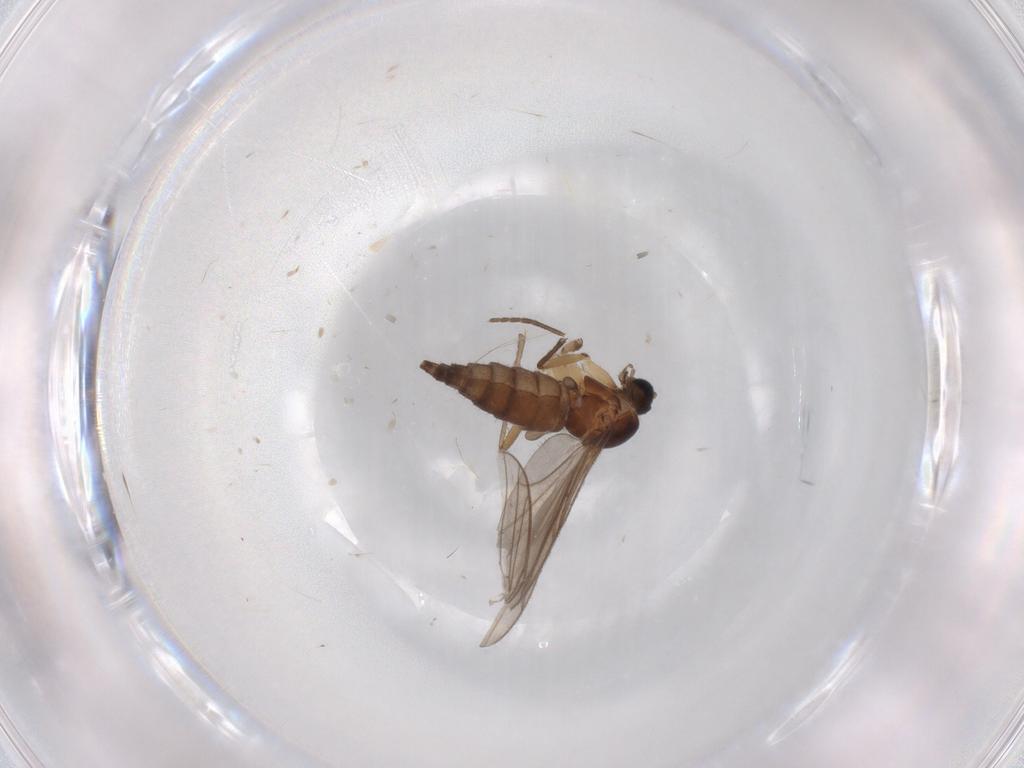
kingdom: Animalia
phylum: Arthropoda
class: Insecta
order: Diptera
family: Sciaridae
